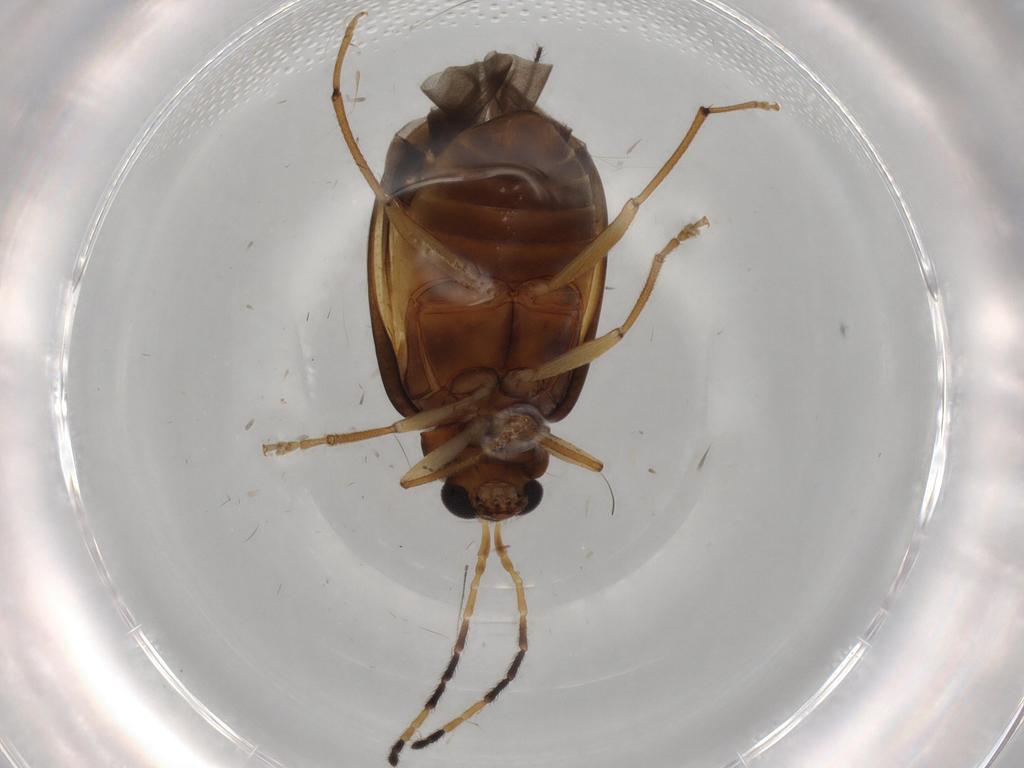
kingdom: Animalia
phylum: Arthropoda
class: Insecta
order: Coleoptera
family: Chrysomelidae
